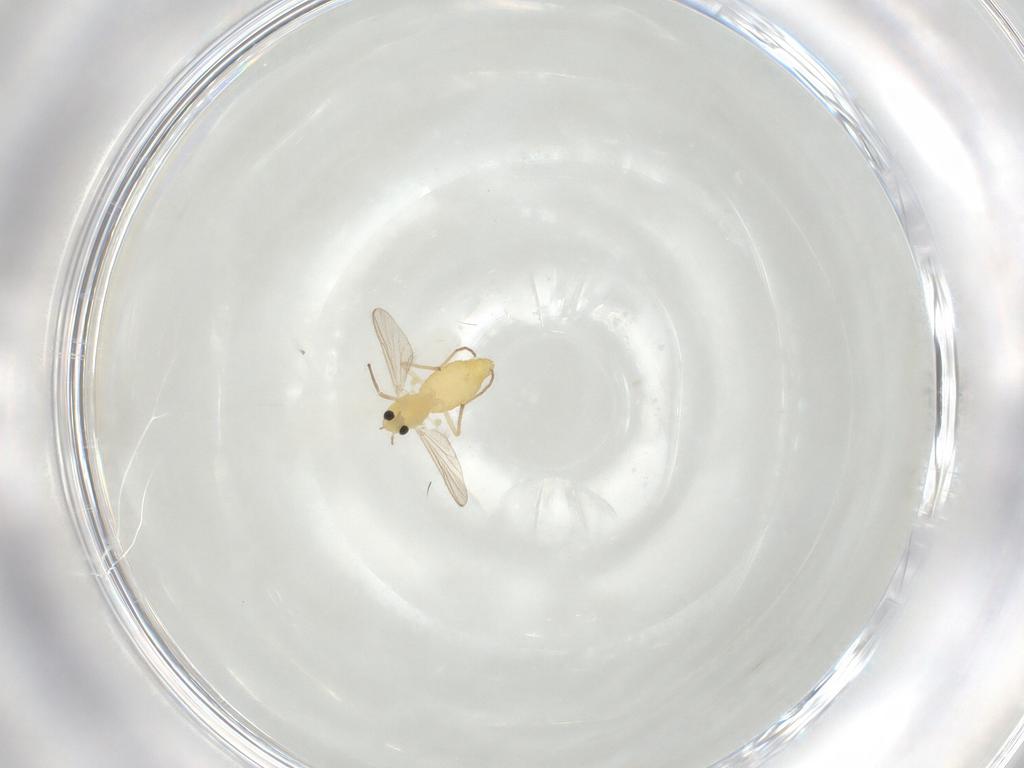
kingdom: Animalia
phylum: Arthropoda
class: Insecta
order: Diptera
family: Chironomidae
